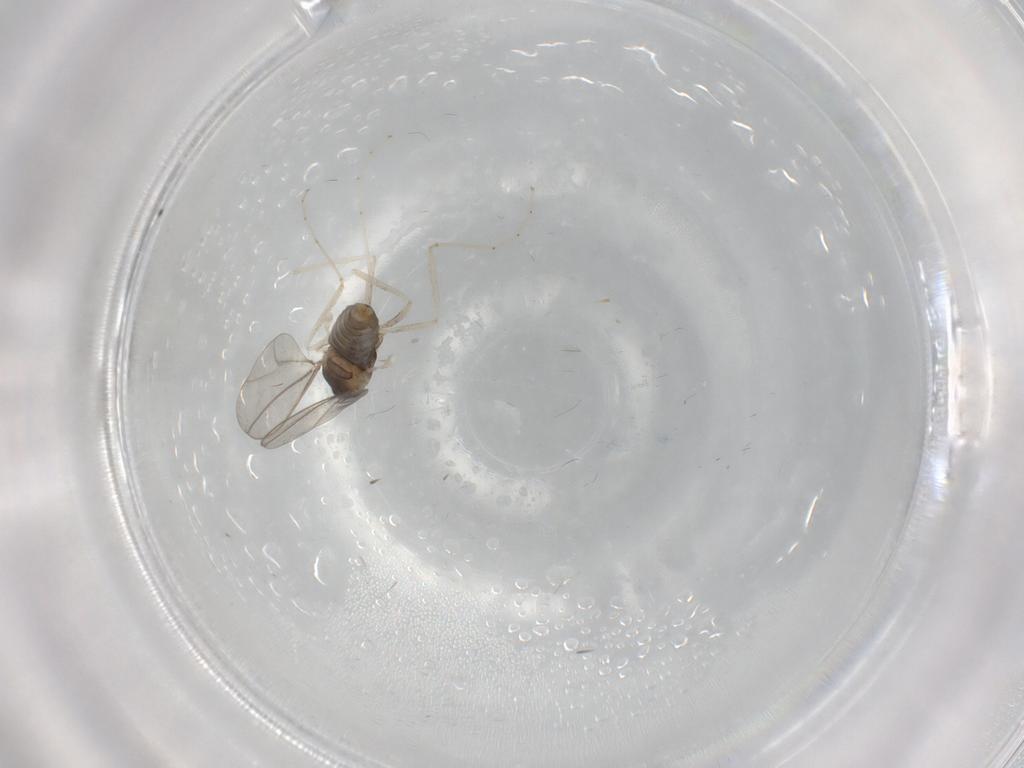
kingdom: Animalia
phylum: Arthropoda
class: Insecta
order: Diptera
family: Cecidomyiidae
